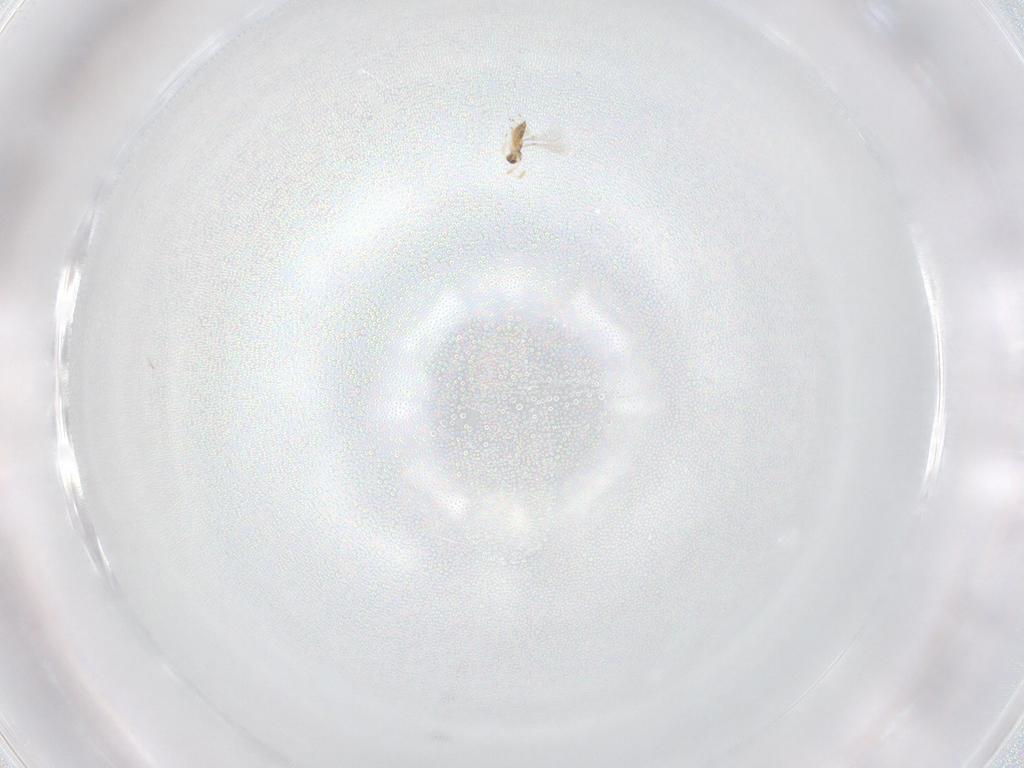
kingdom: Animalia
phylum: Arthropoda
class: Insecta
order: Hymenoptera
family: Mymaridae
